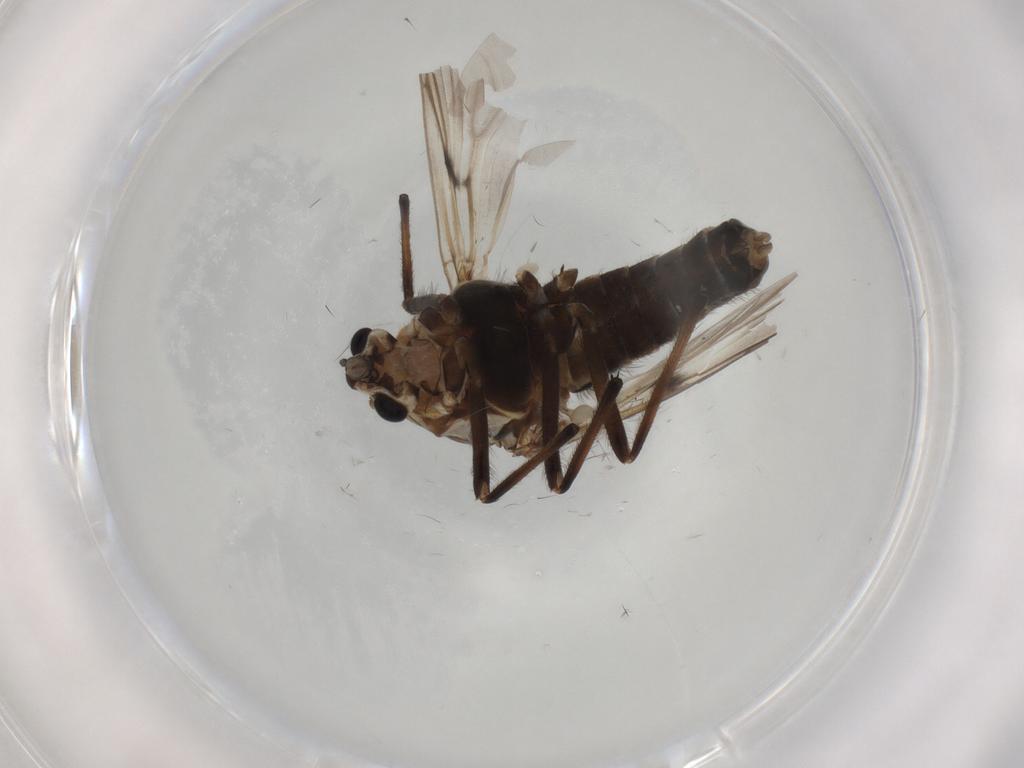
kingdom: Animalia
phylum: Arthropoda
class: Insecta
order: Diptera
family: Chironomidae
